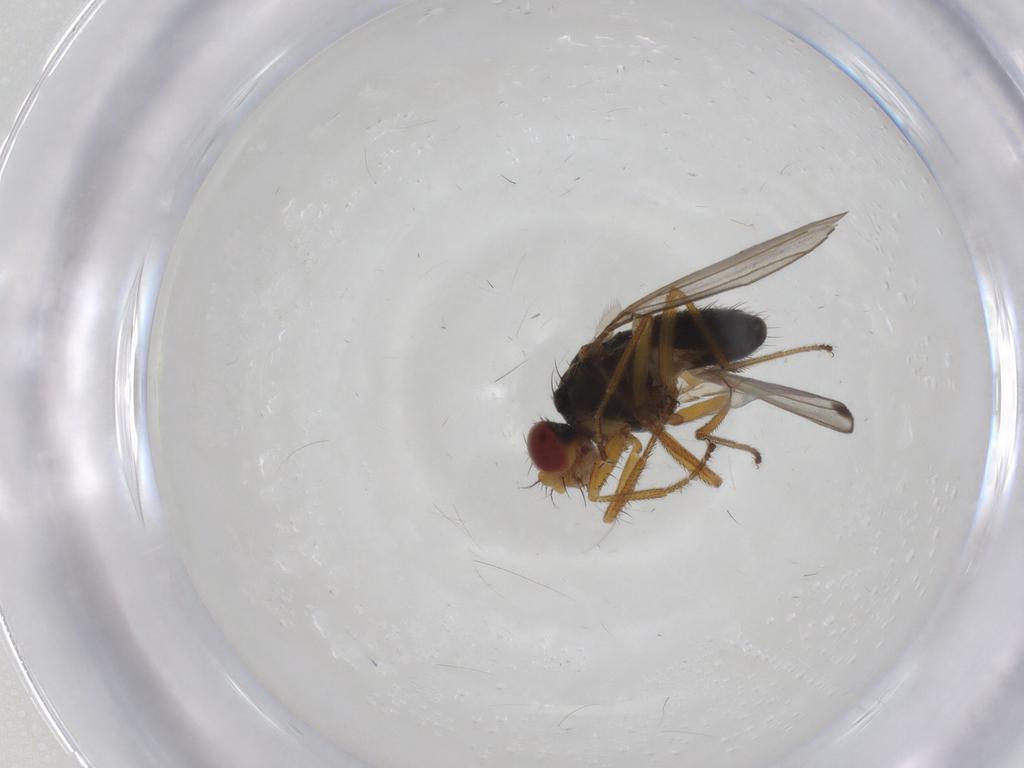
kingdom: Animalia
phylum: Arthropoda
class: Insecta
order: Diptera
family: Drosophilidae
